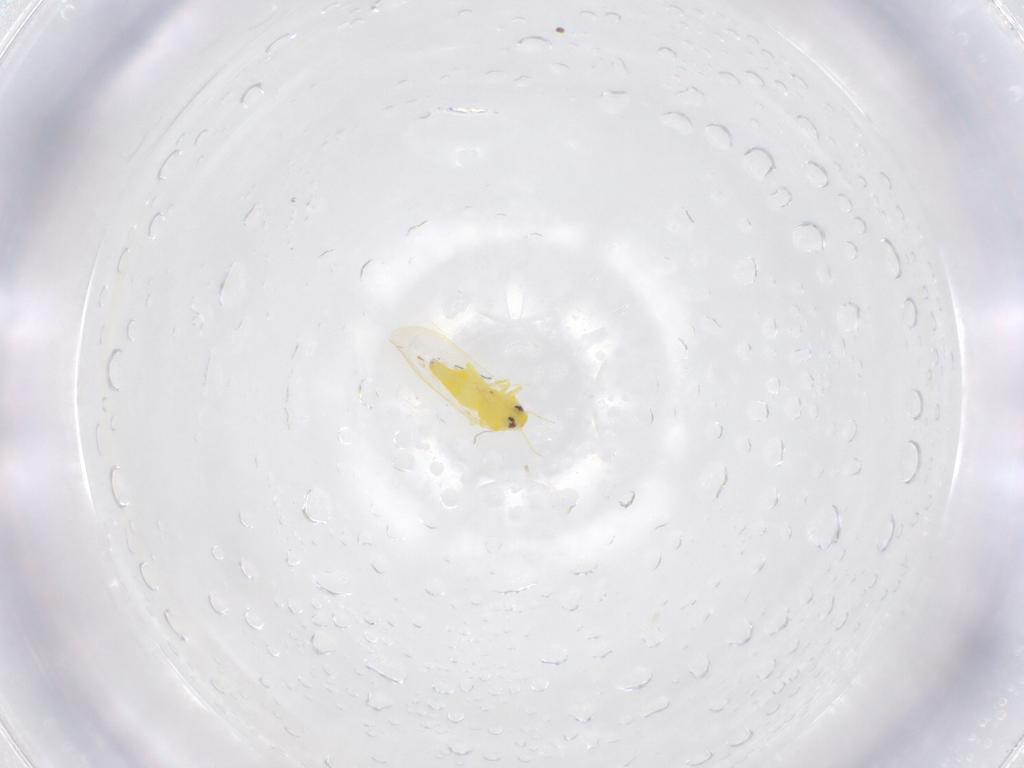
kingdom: Animalia
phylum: Arthropoda
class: Insecta
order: Hemiptera
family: Aleyrodidae
